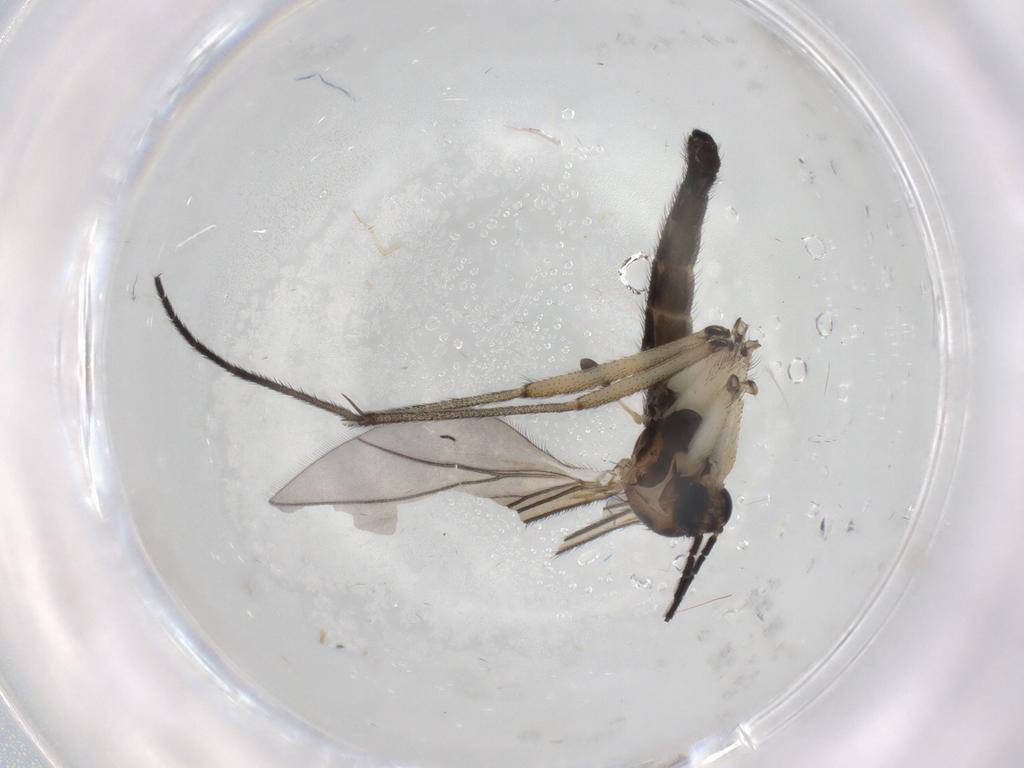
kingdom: Animalia
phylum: Arthropoda
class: Insecta
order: Diptera
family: Sciaridae
